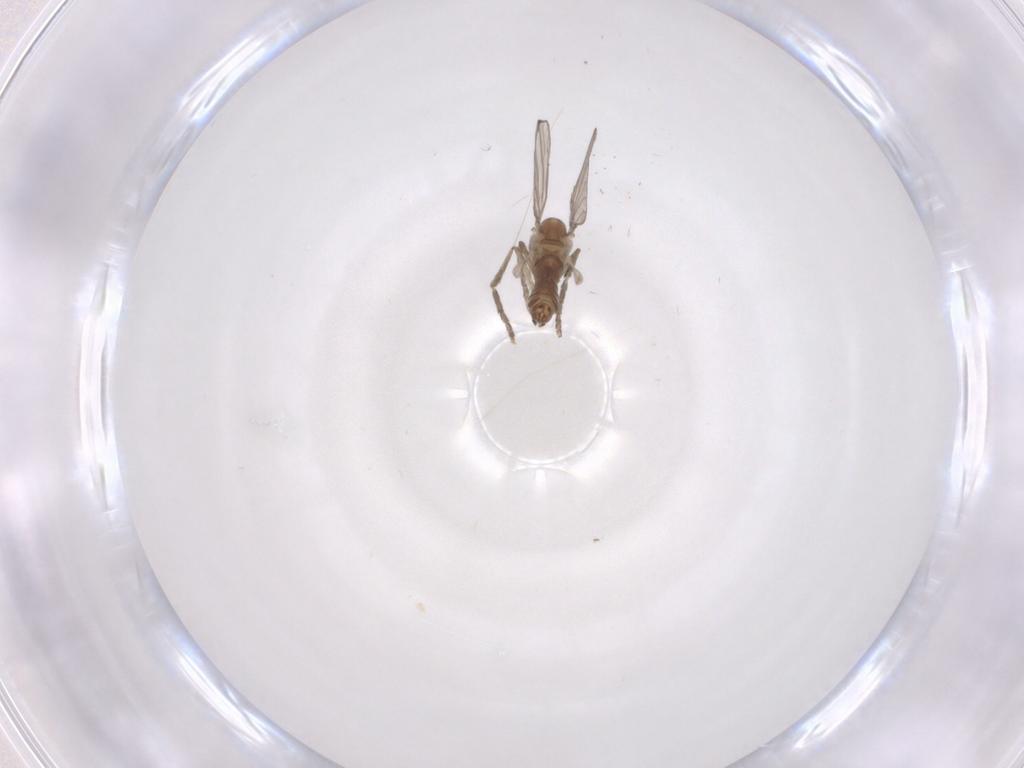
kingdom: Animalia
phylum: Arthropoda
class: Insecta
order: Diptera
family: Psychodidae
